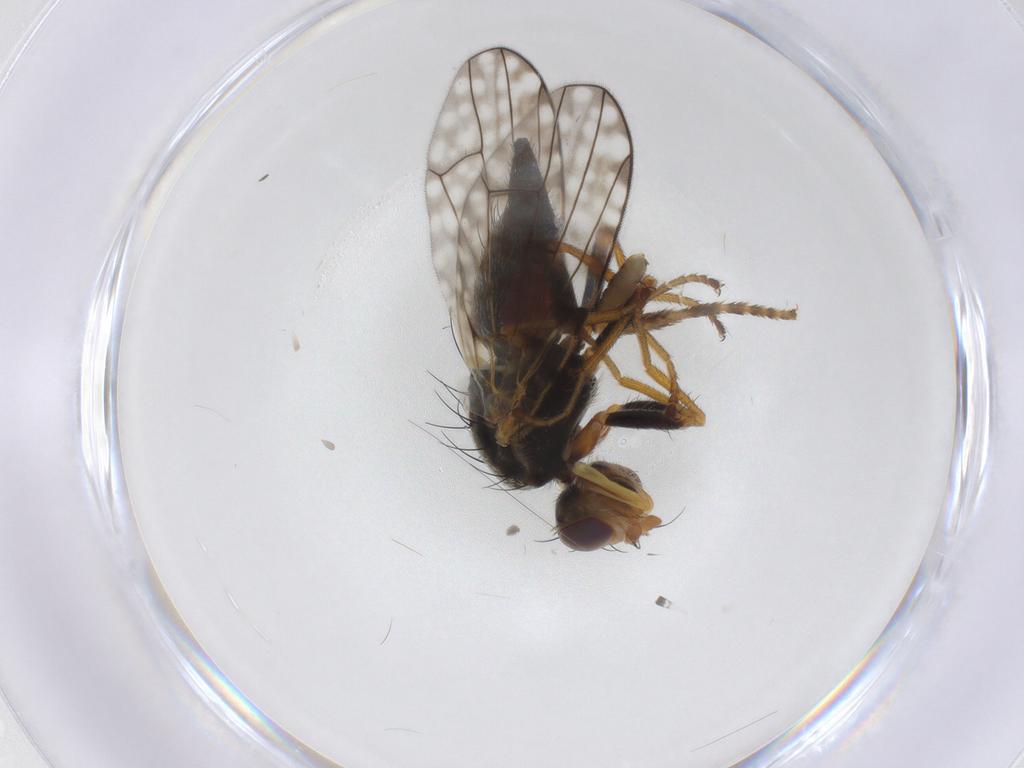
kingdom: Animalia
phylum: Arthropoda
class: Insecta
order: Diptera
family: Tephritidae
